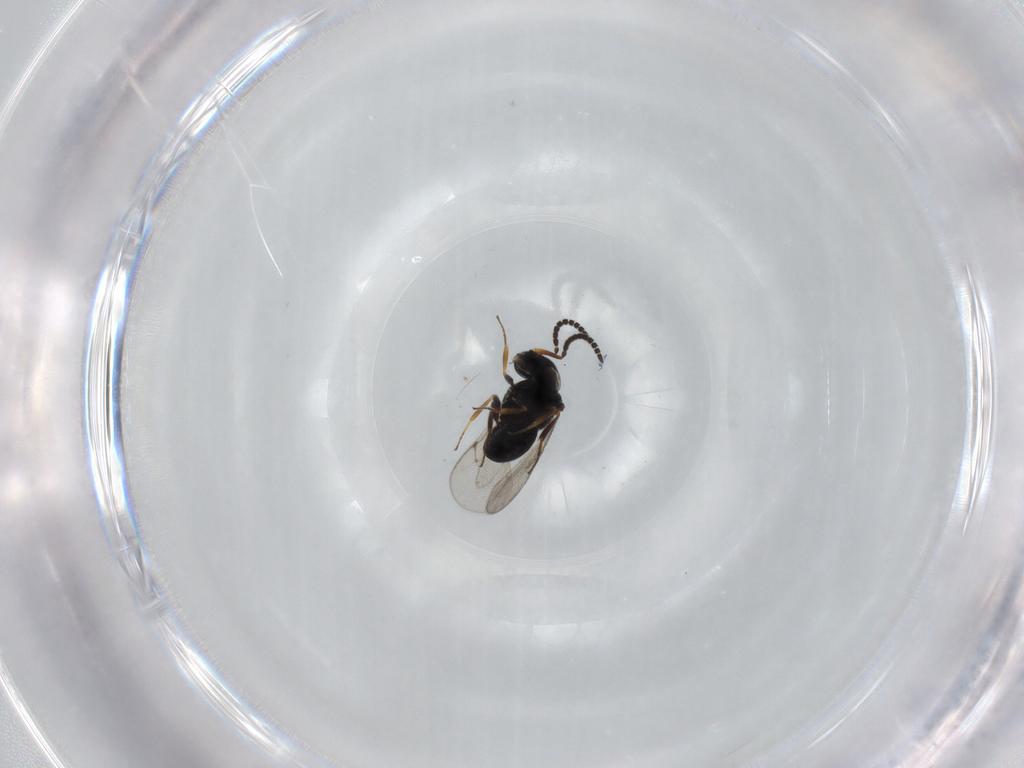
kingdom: Animalia
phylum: Arthropoda
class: Insecta
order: Hymenoptera
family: Scelionidae
